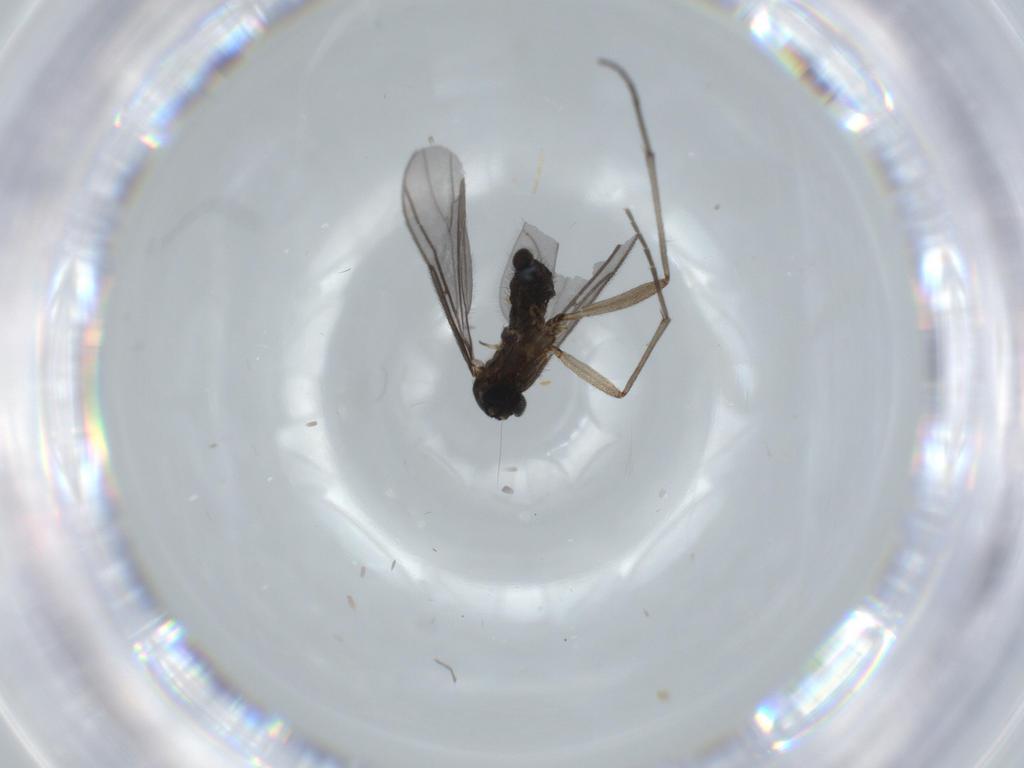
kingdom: Animalia
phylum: Arthropoda
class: Insecta
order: Diptera
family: Sciaridae
